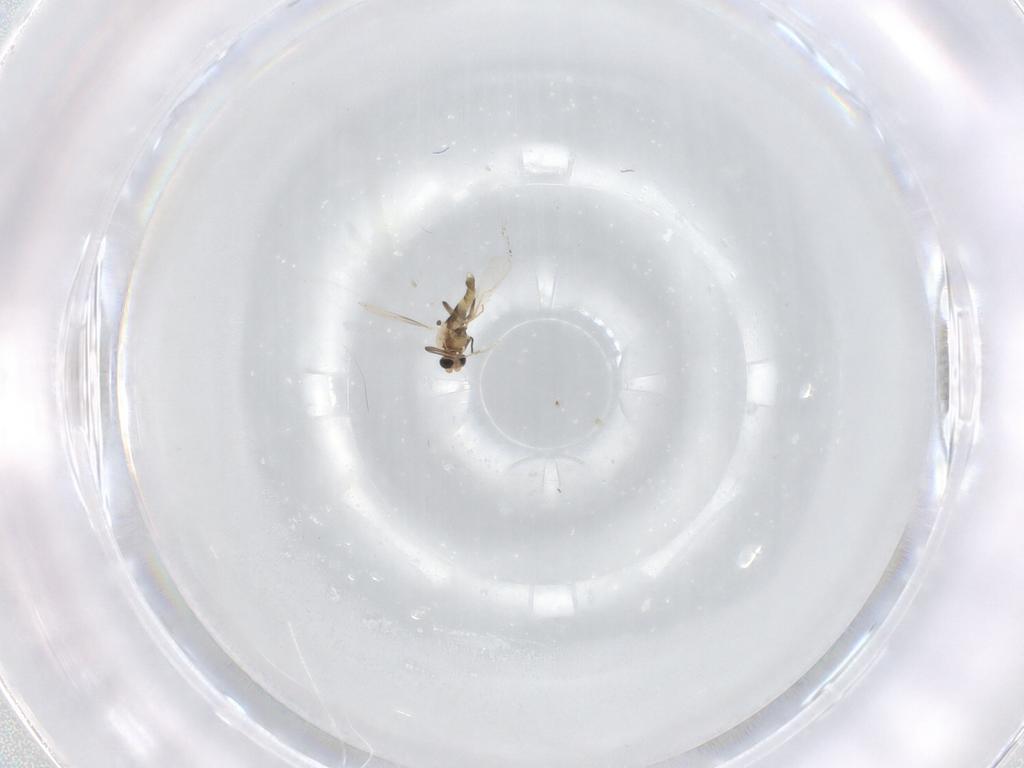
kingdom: Animalia
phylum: Arthropoda
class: Insecta
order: Diptera
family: Chironomidae
